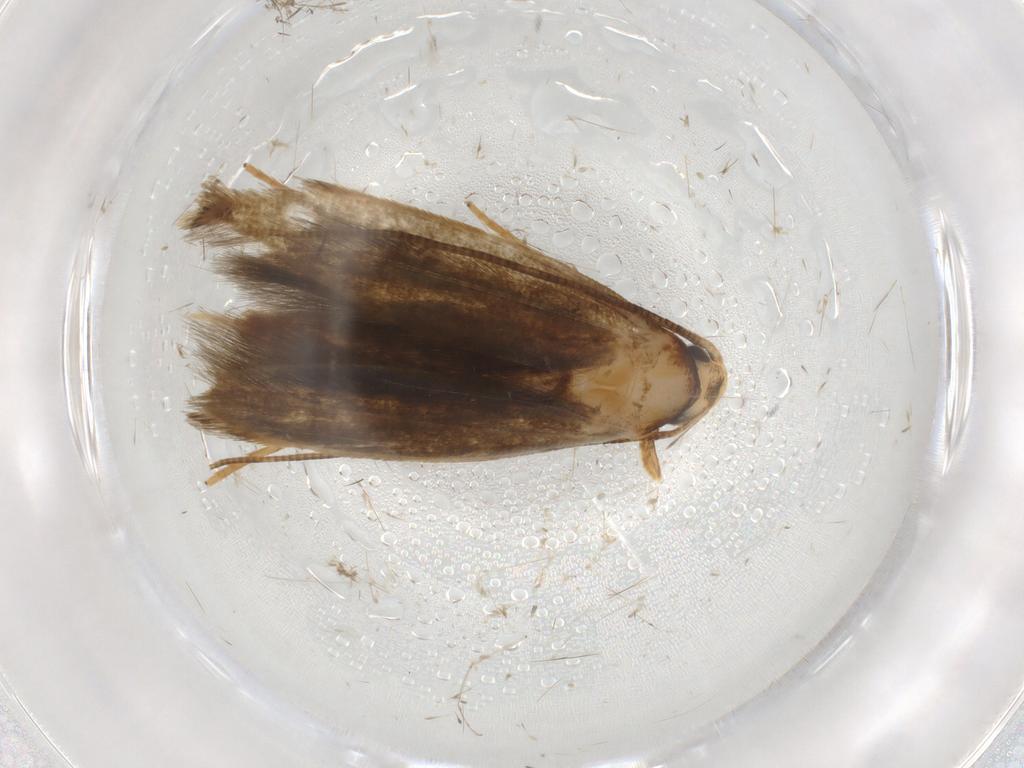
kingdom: Animalia
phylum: Arthropoda
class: Insecta
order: Lepidoptera
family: Tineidae
